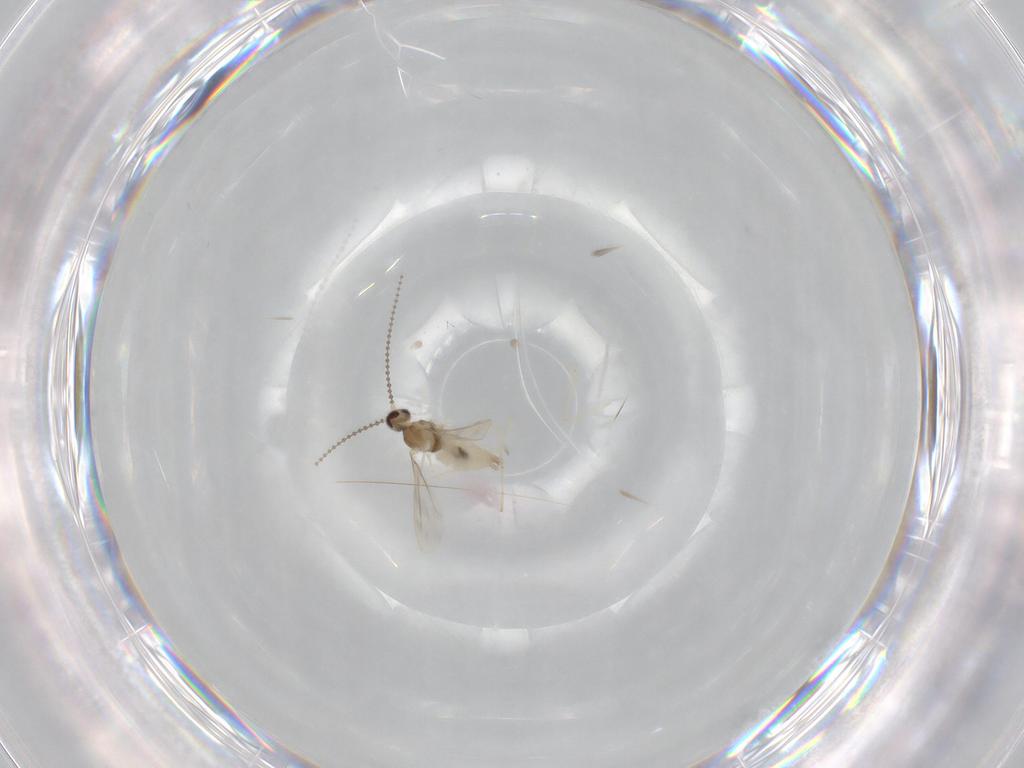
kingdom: Animalia
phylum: Arthropoda
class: Insecta
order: Diptera
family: Cecidomyiidae
